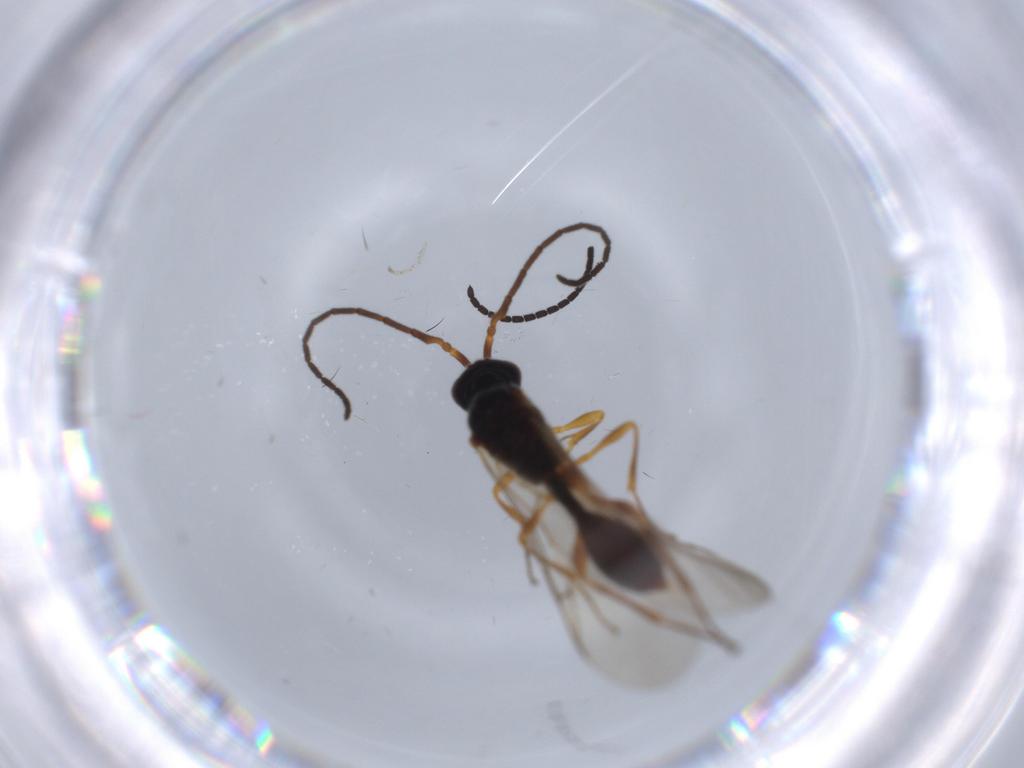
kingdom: Animalia
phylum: Arthropoda
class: Insecta
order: Hymenoptera
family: Braconidae
